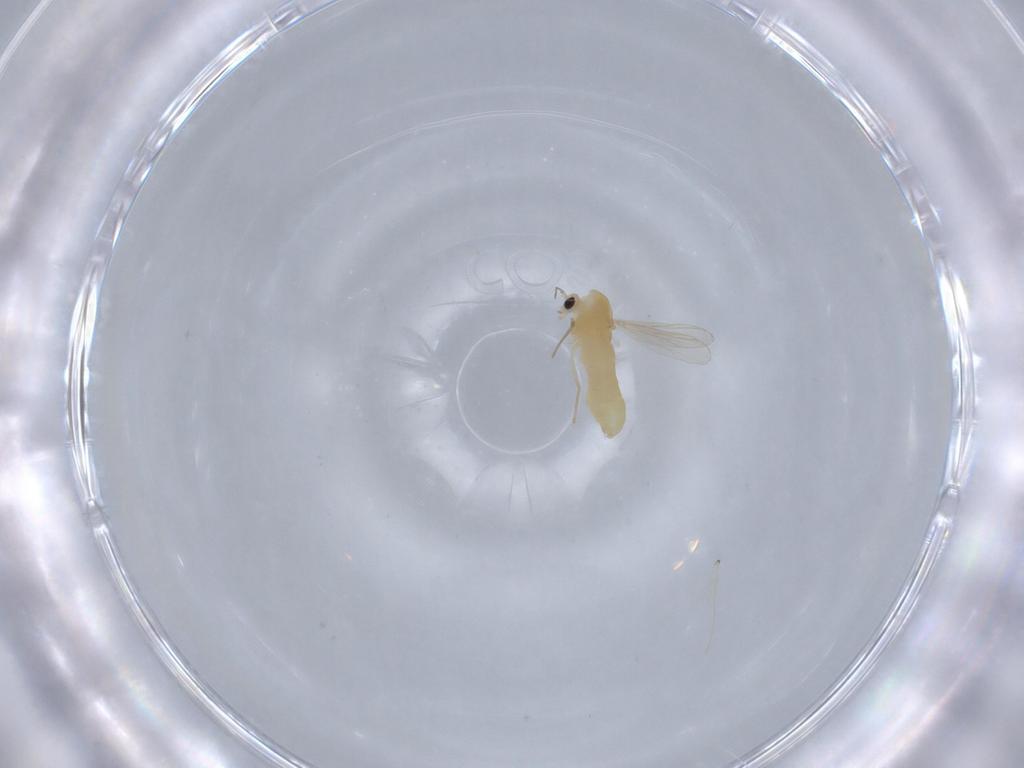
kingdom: Animalia
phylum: Arthropoda
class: Insecta
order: Diptera
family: Chironomidae
